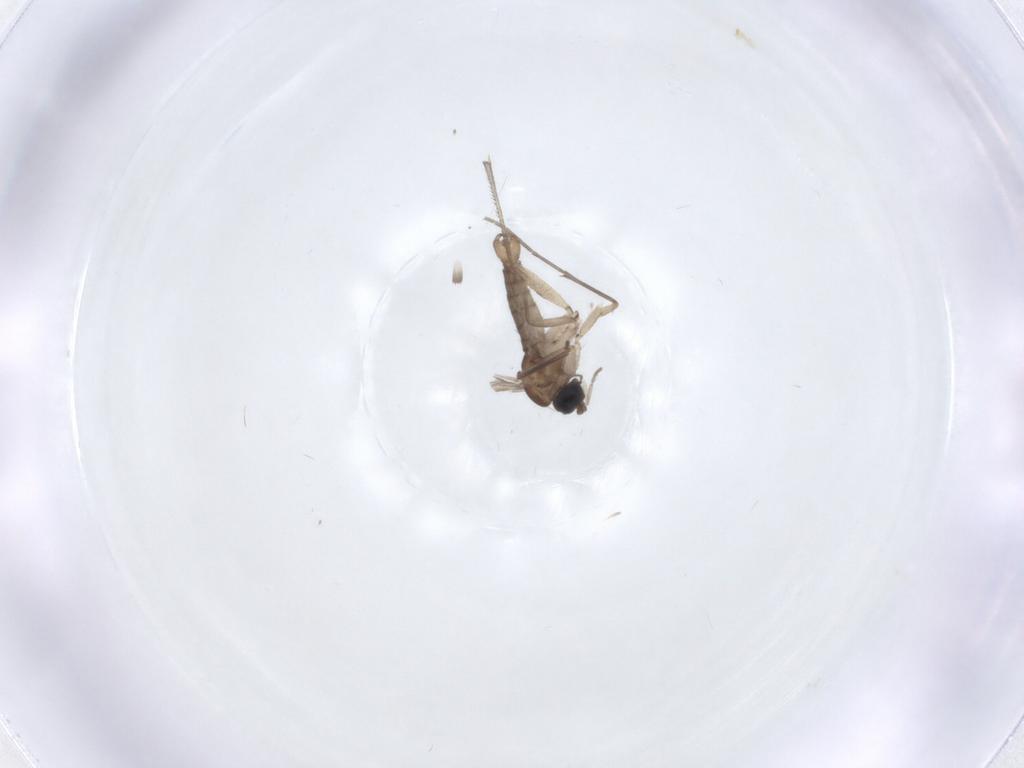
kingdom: Animalia
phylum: Arthropoda
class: Insecta
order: Diptera
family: Sciaridae
